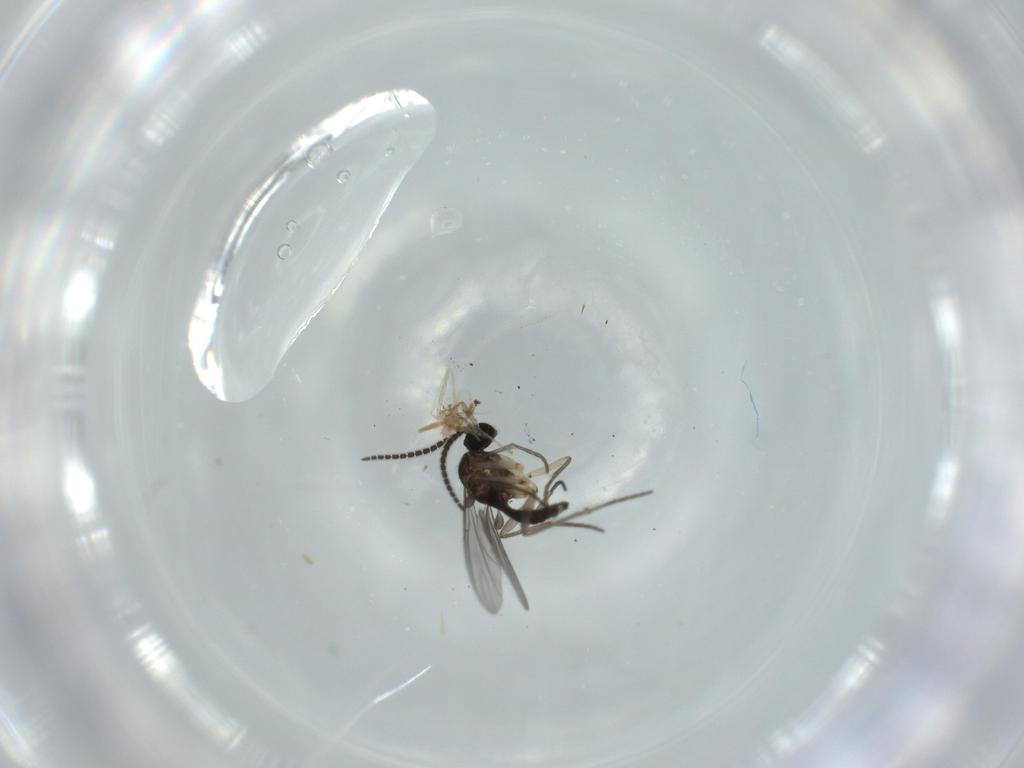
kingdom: Animalia
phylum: Arthropoda
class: Insecta
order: Diptera
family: Sciaridae
